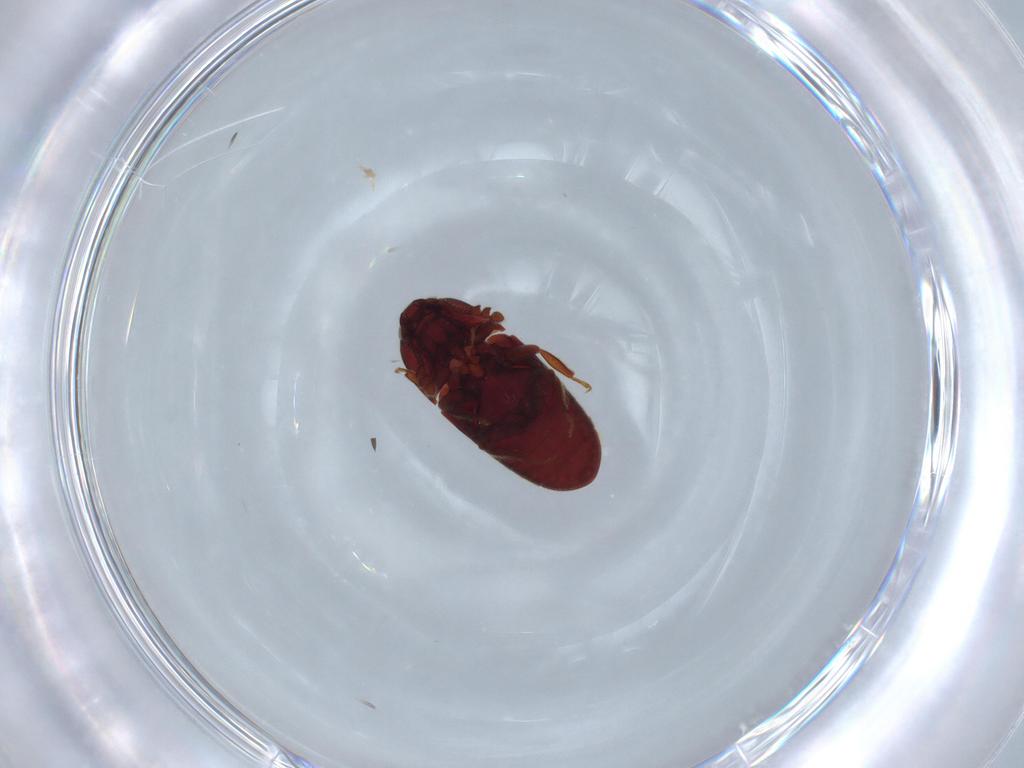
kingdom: Animalia
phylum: Arthropoda
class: Insecta
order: Coleoptera
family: Throscidae
